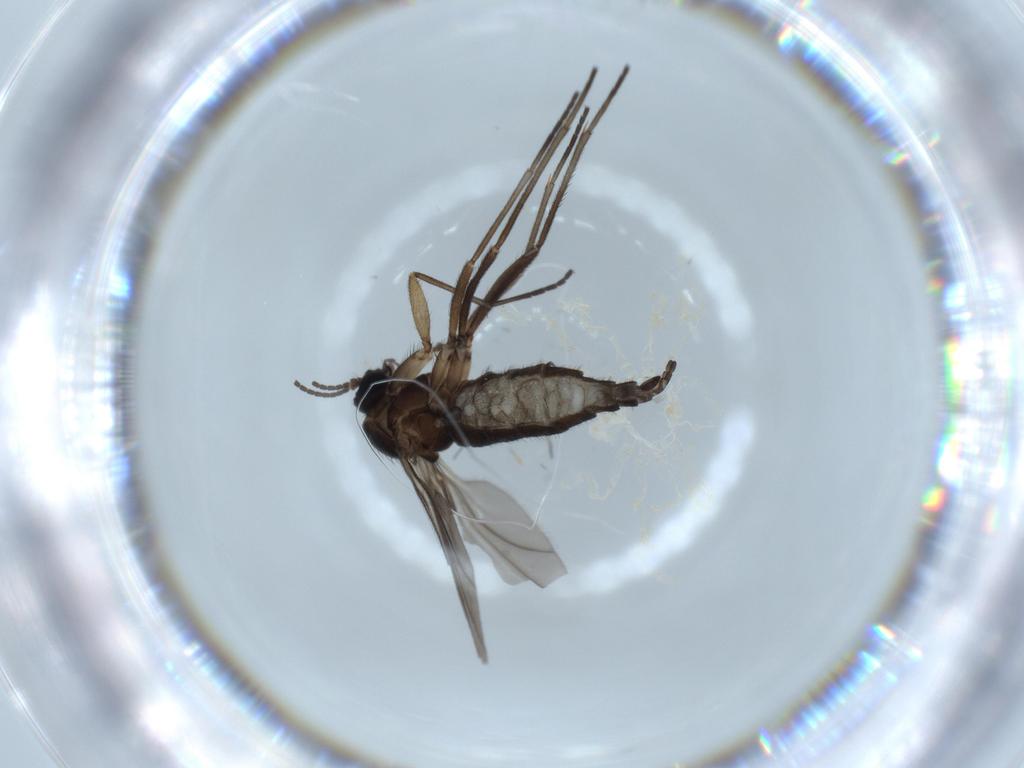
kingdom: Animalia
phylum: Arthropoda
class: Insecta
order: Diptera
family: Sciaridae
